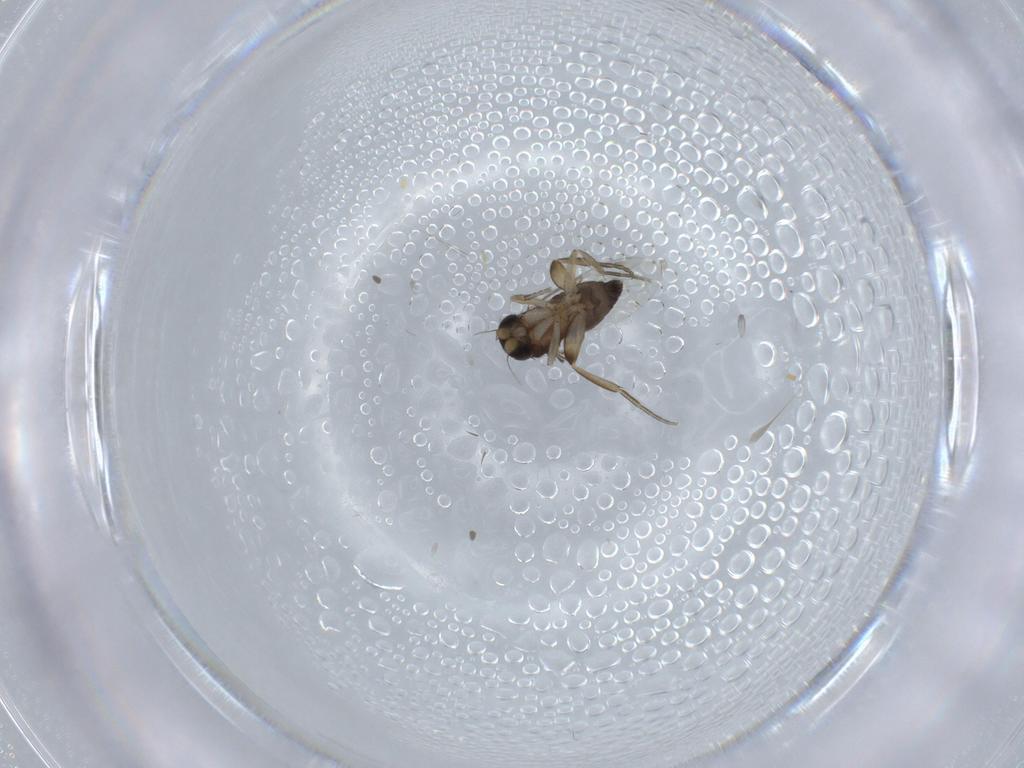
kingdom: Animalia
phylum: Arthropoda
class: Insecta
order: Diptera
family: Phoridae
